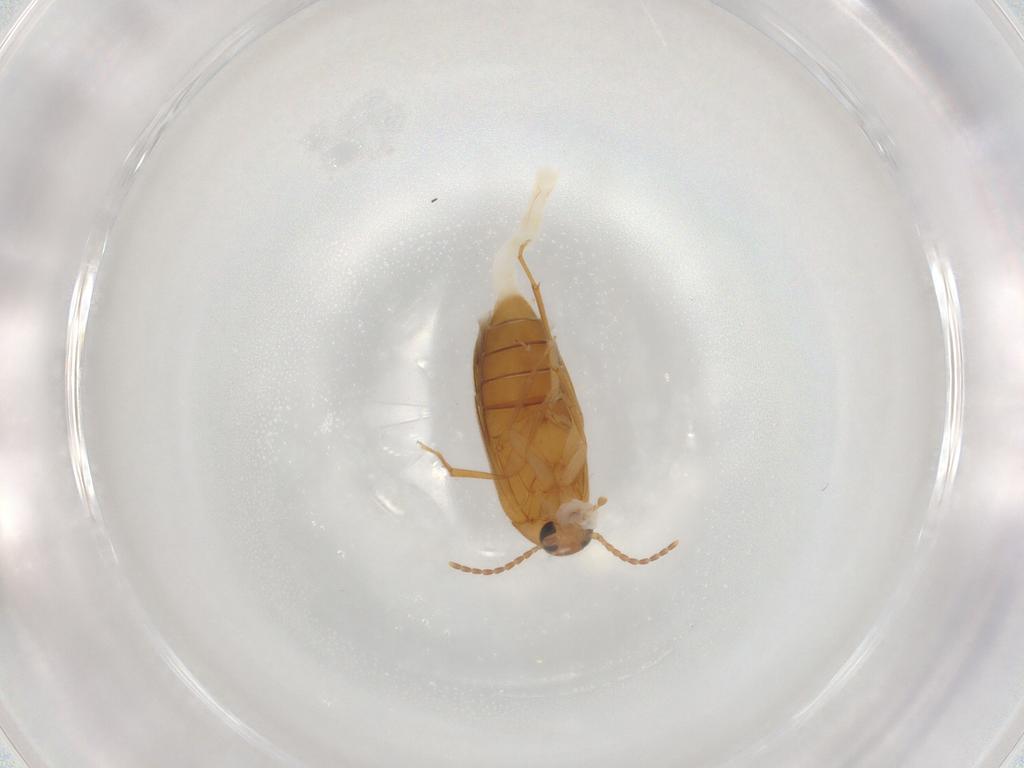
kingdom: Animalia
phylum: Arthropoda
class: Insecta
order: Coleoptera
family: Scraptiidae
